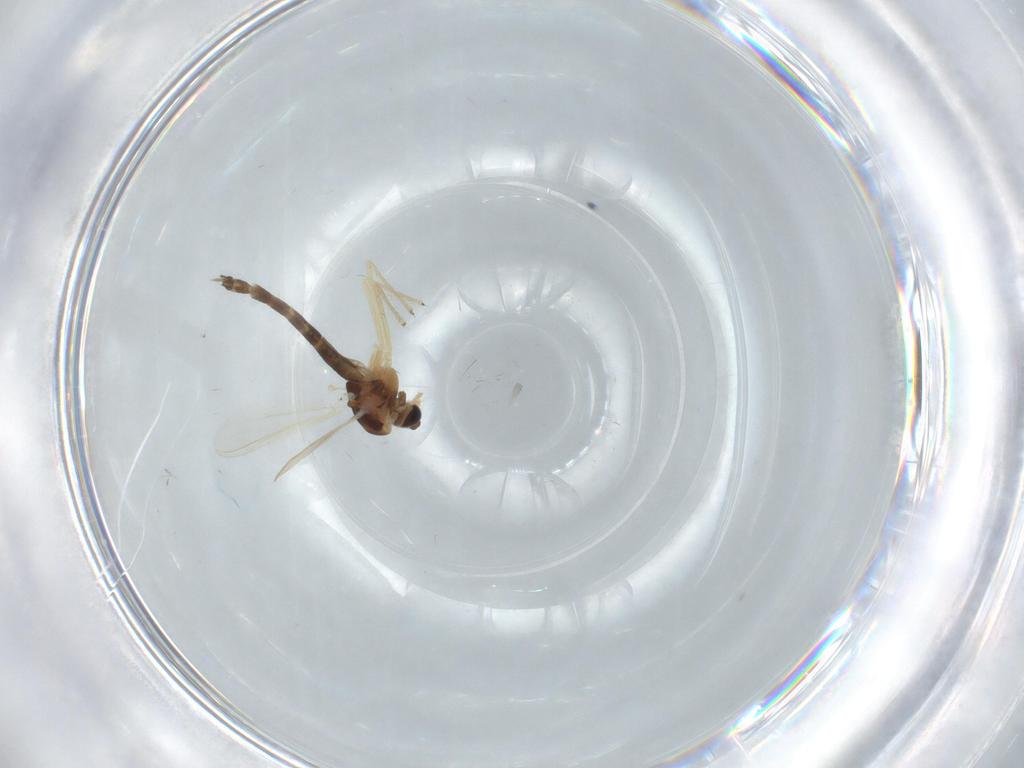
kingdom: Animalia
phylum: Arthropoda
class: Insecta
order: Diptera
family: Chironomidae
